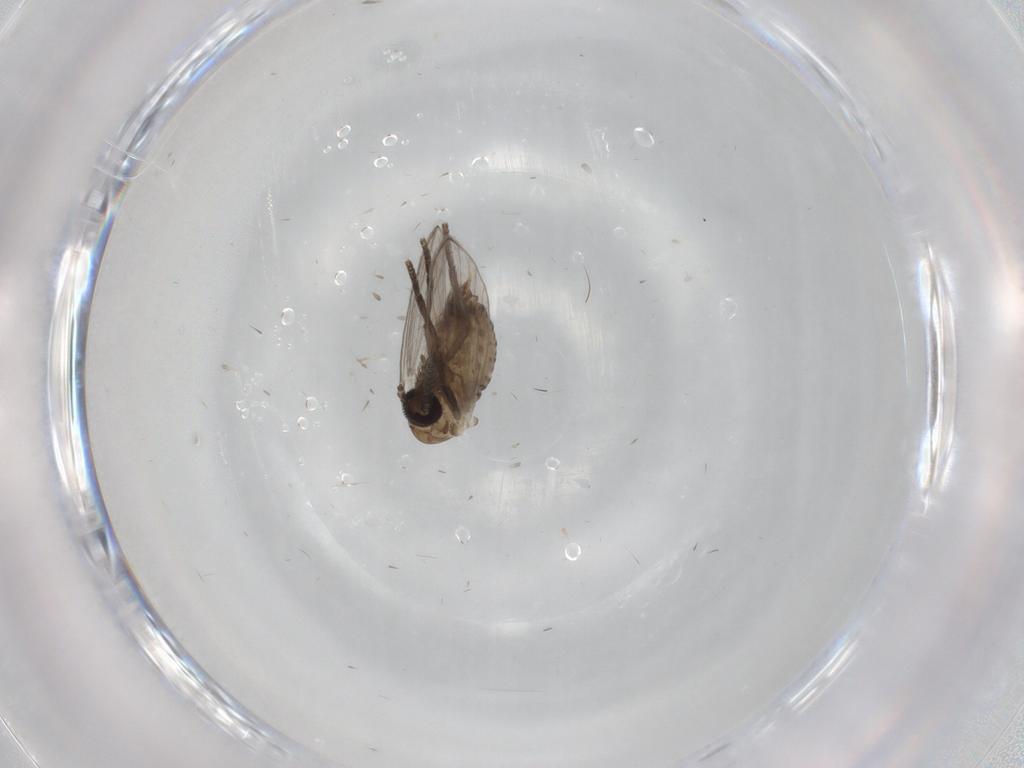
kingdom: Animalia
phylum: Arthropoda
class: Insecta
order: Diptera
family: Psychodidae
